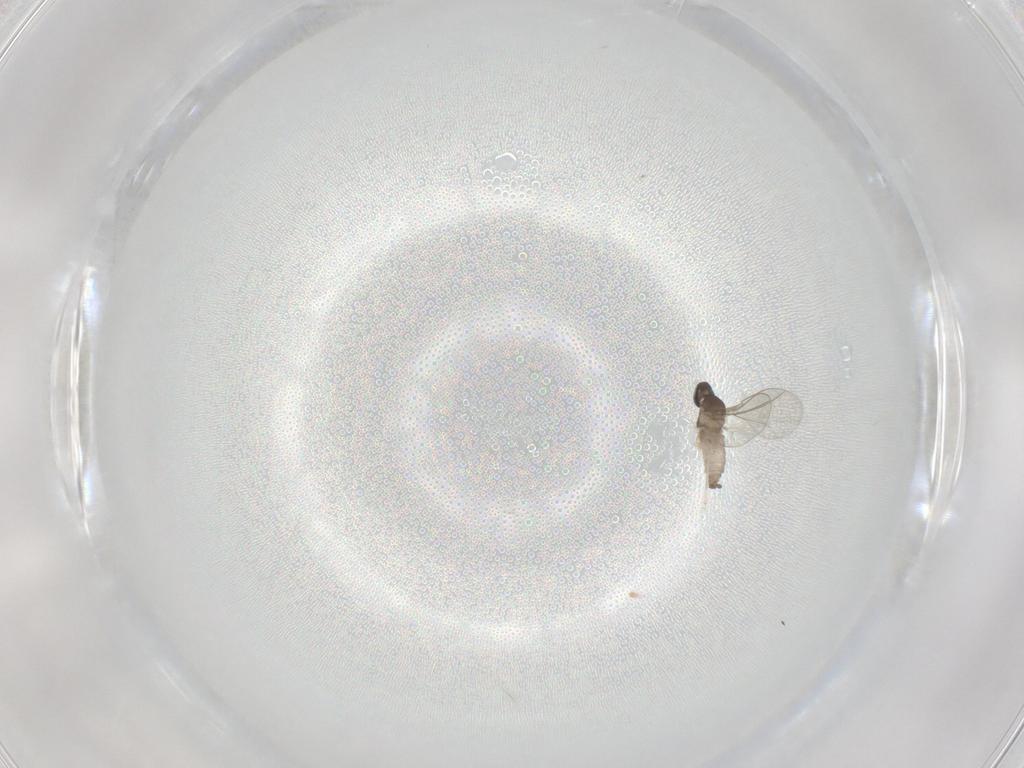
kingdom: Animalia
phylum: Arthropoda
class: Insecta
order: Diptera
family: Cecidomyiidae
